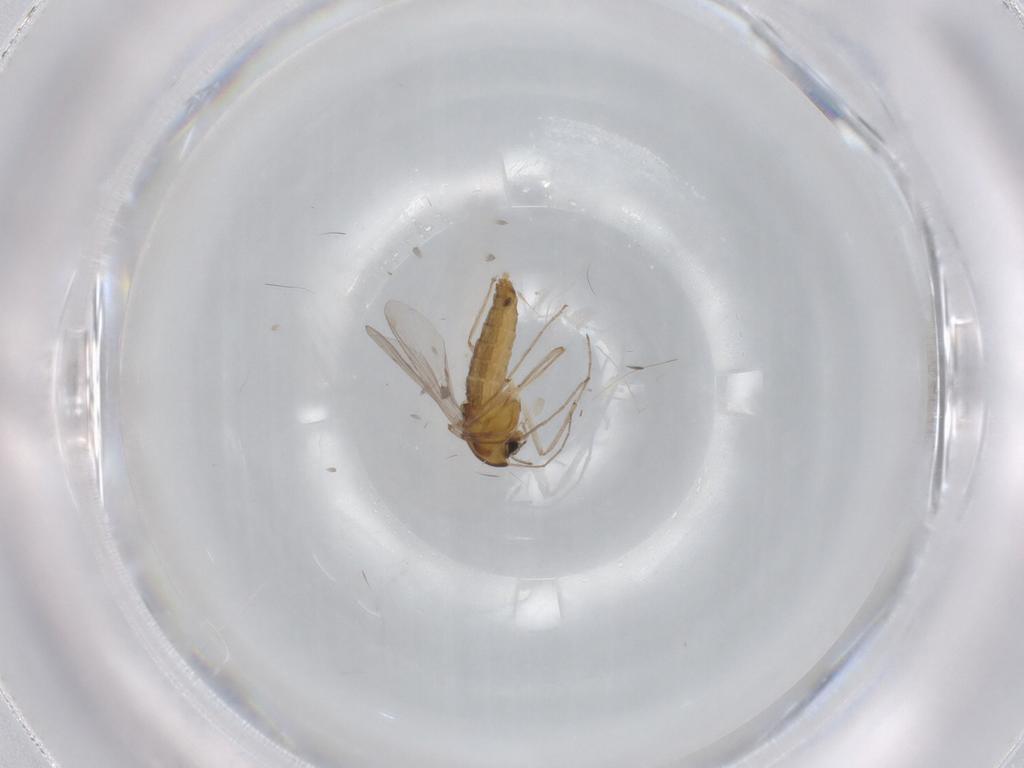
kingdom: Animalia
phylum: Arthropoda
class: Insecta
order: Diptera
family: Chironomidae
